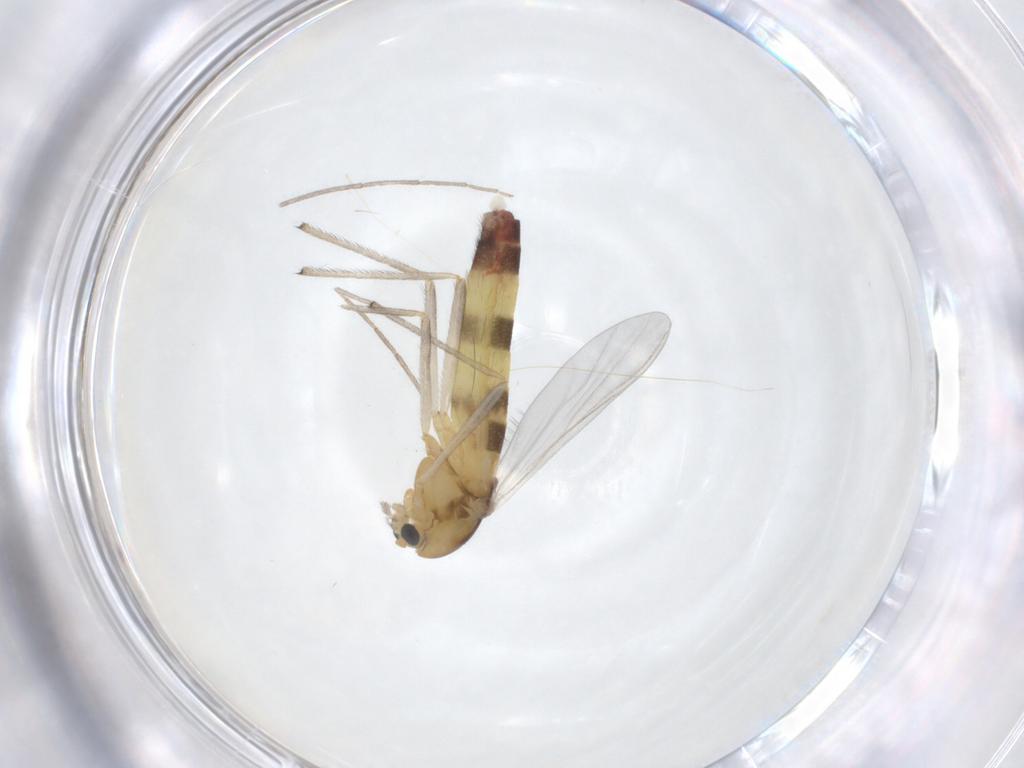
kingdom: Animalia
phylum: Arthropoda
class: Insecta
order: Diptera
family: Chironomidae
